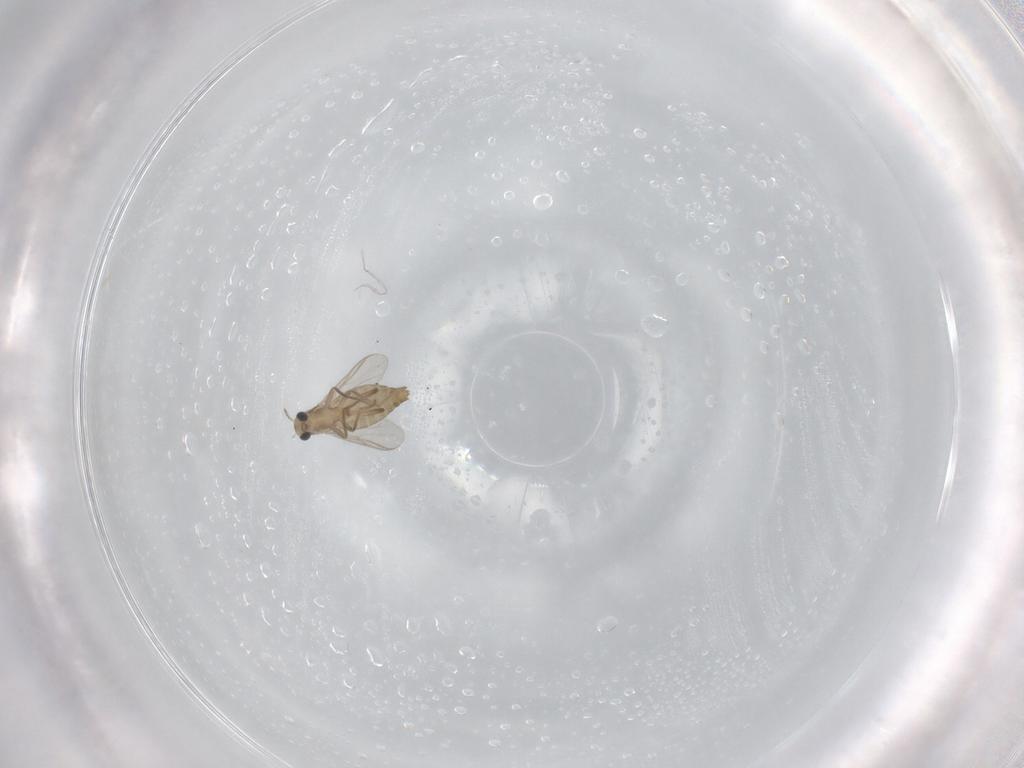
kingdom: Animalia
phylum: Arthropoda
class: Insecta
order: Diptera
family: Chironomidae
